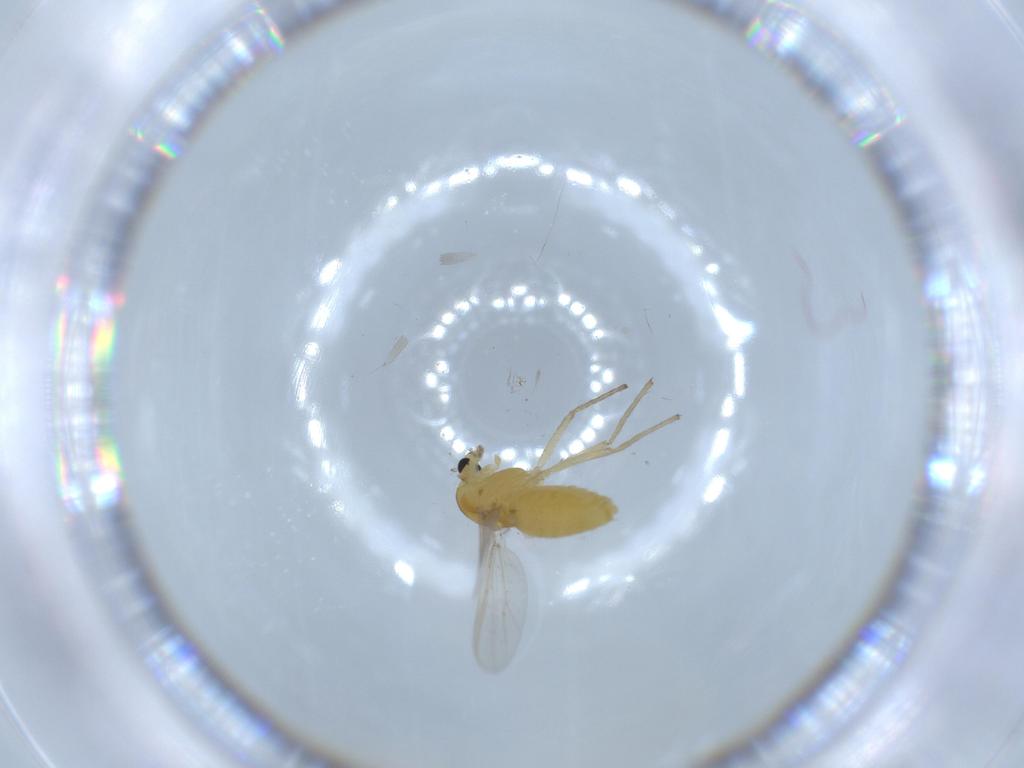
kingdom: Animalia
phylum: Arthropoda
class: Insecta
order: Diptera
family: Chironomidae
